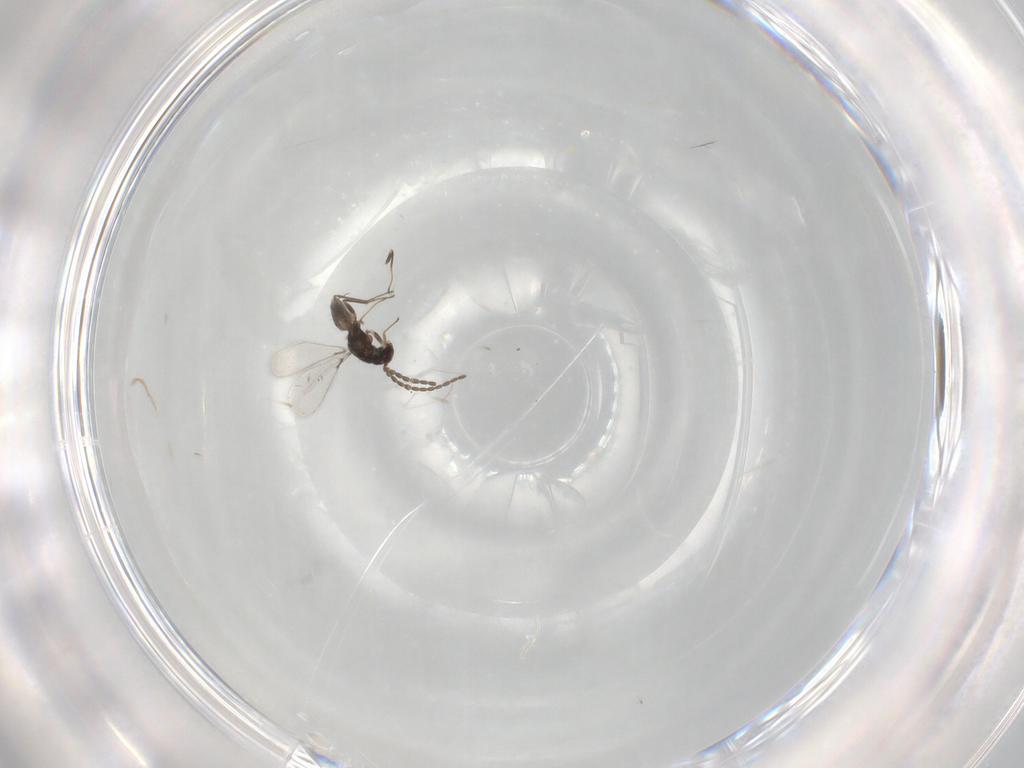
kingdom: Animalia
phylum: Arthropoda
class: Insecta
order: Hymenoptera
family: Mymaridae
